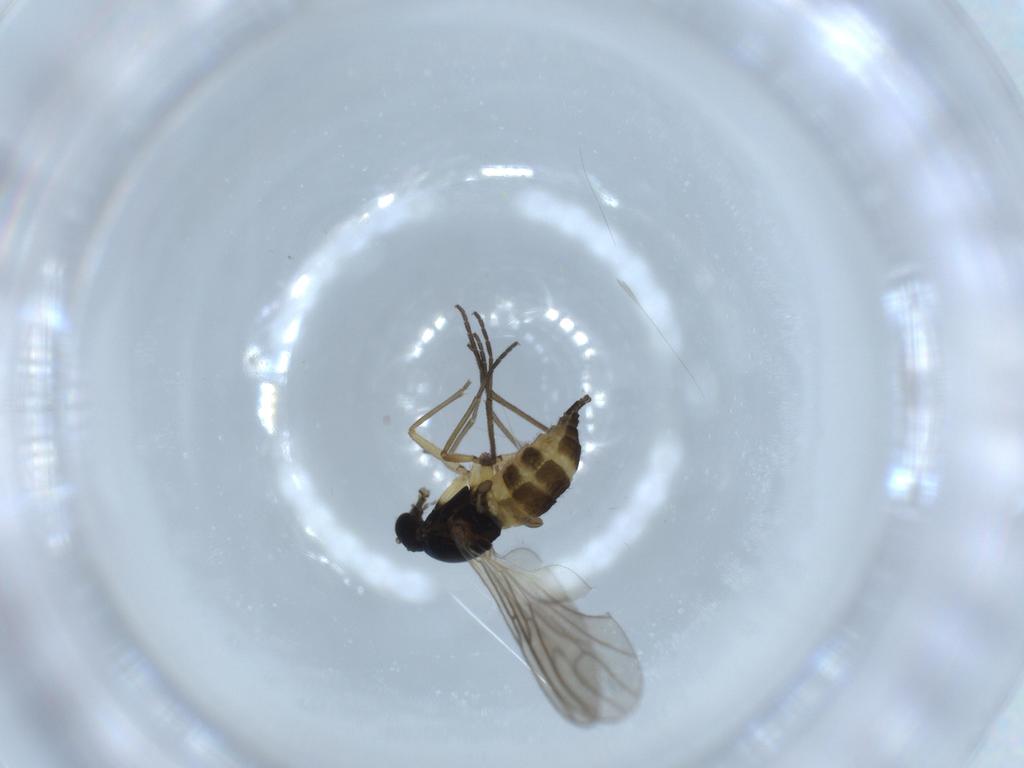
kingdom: Animalia
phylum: Arthropoda
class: Insecta
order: Diptera
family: Sciaridae
